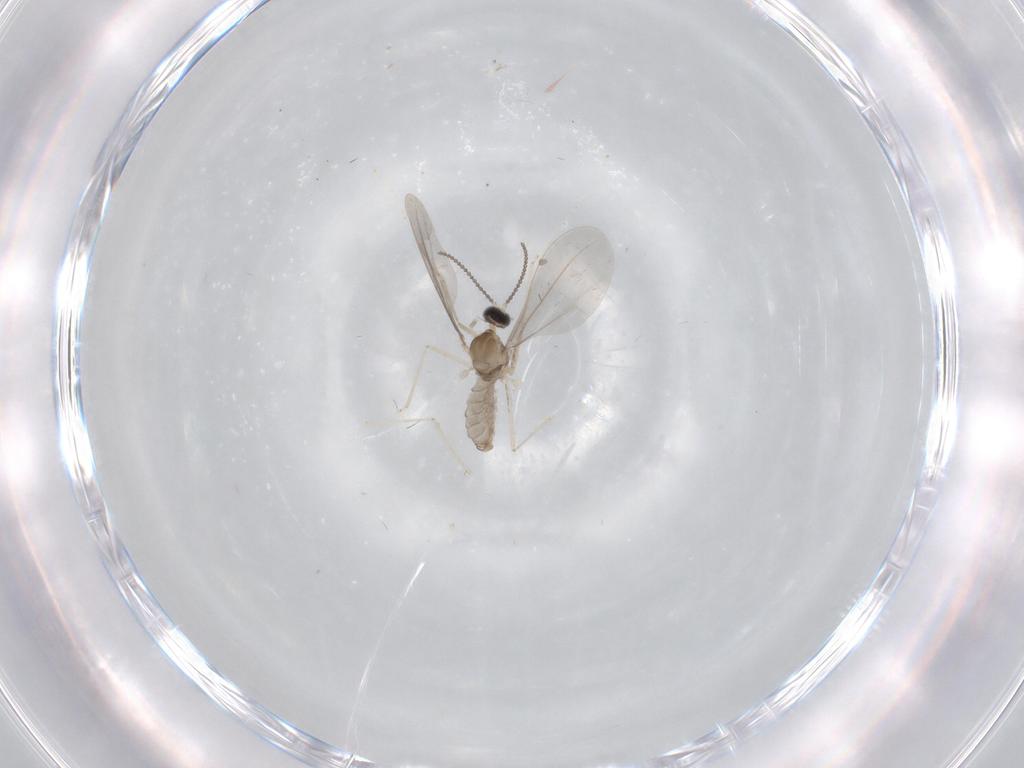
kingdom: Animalia
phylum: Arthropoda
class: Insecta
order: Diptera
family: Cecidomyiidae
